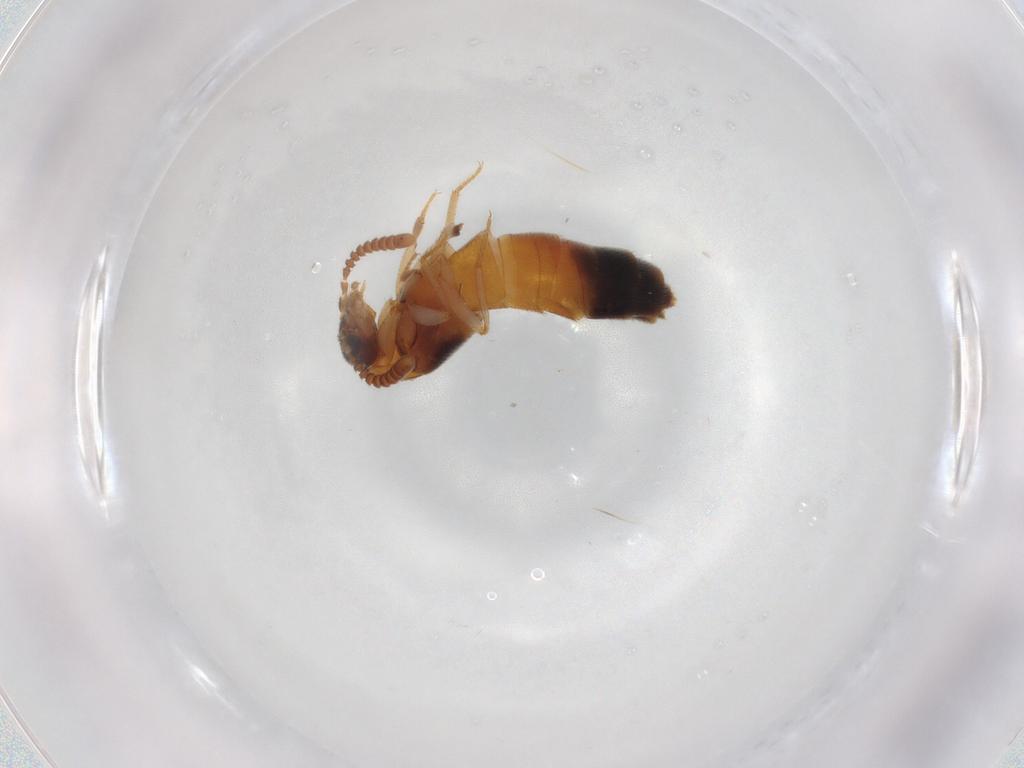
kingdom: Animalia
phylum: Arthropoda
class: Insecta
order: Coleoptera
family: Staphylinidae
